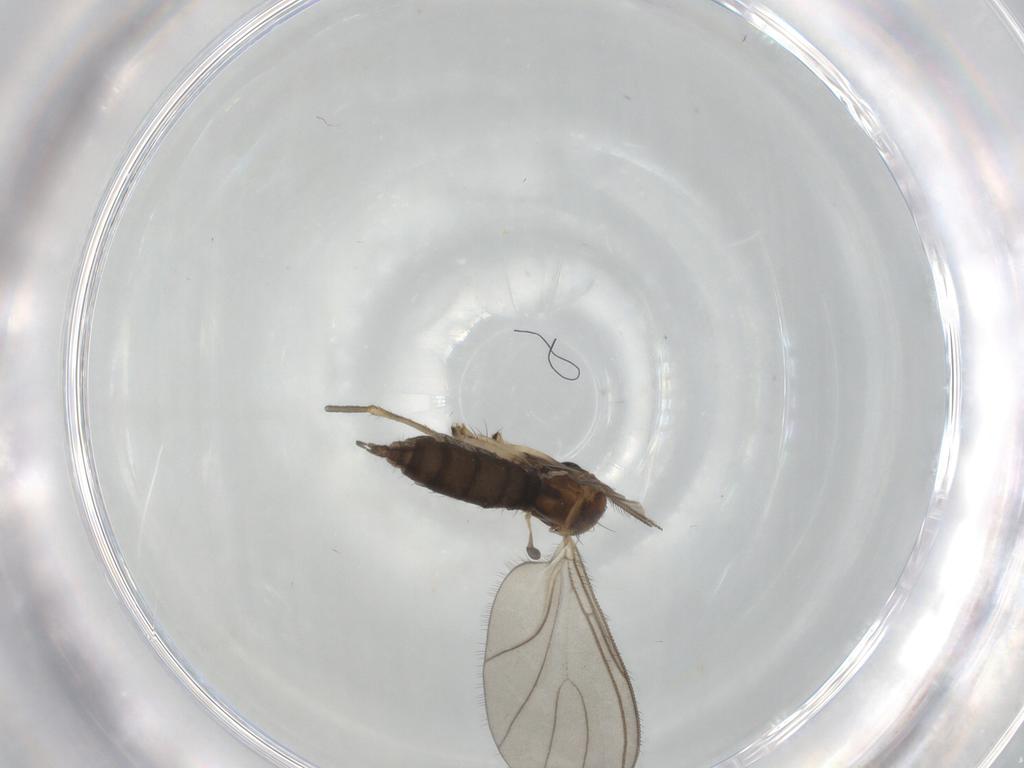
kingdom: Animalia
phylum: Arthropoda
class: Insecta
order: Diptera
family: Sciaridae
